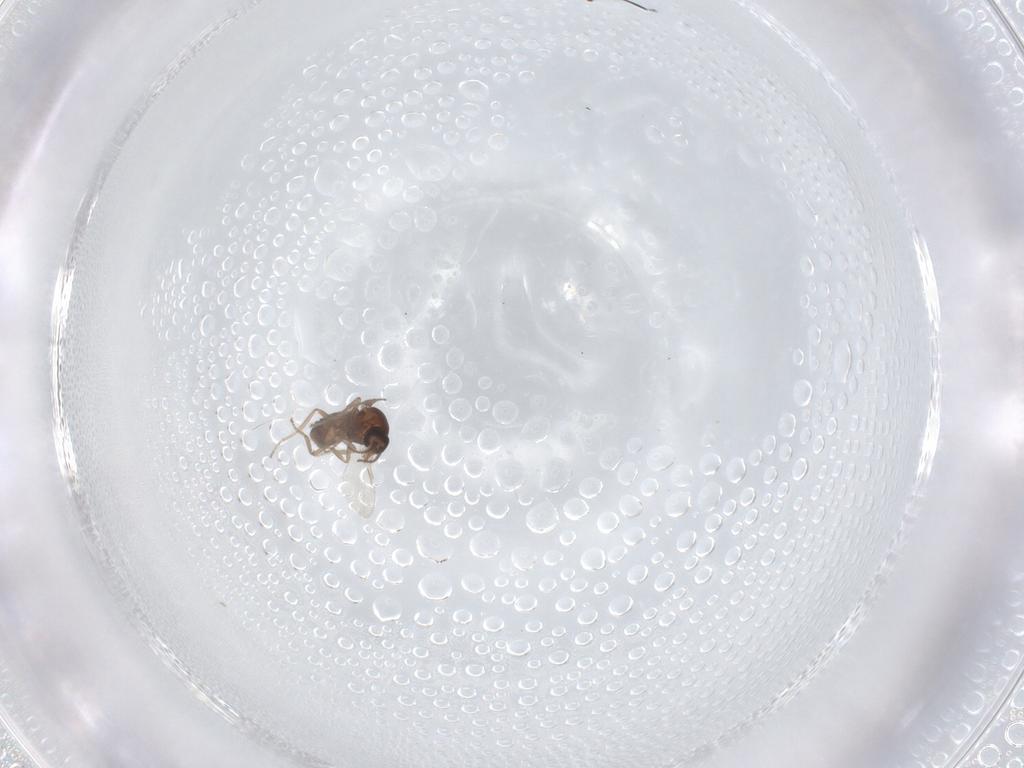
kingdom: Animalia
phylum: Arthropoda
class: Insecta
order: Diptera
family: Ceratopogonidae
